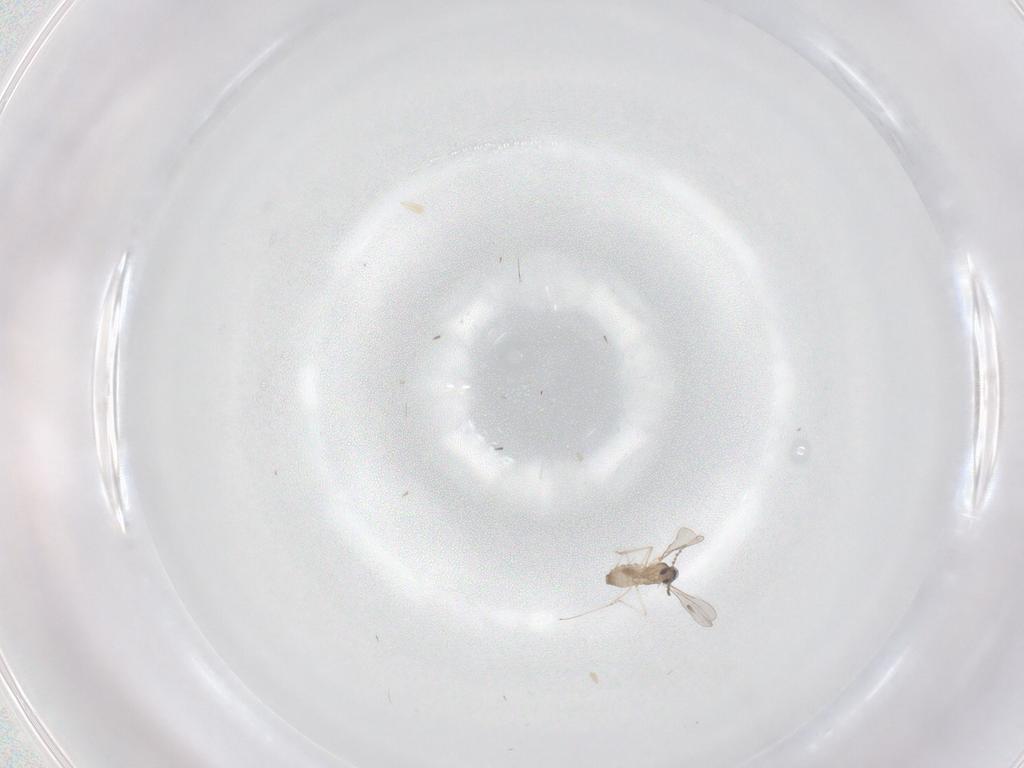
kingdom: Animalia
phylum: Arthropoda
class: Insecta
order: Diptera
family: Cecidomyiidae
